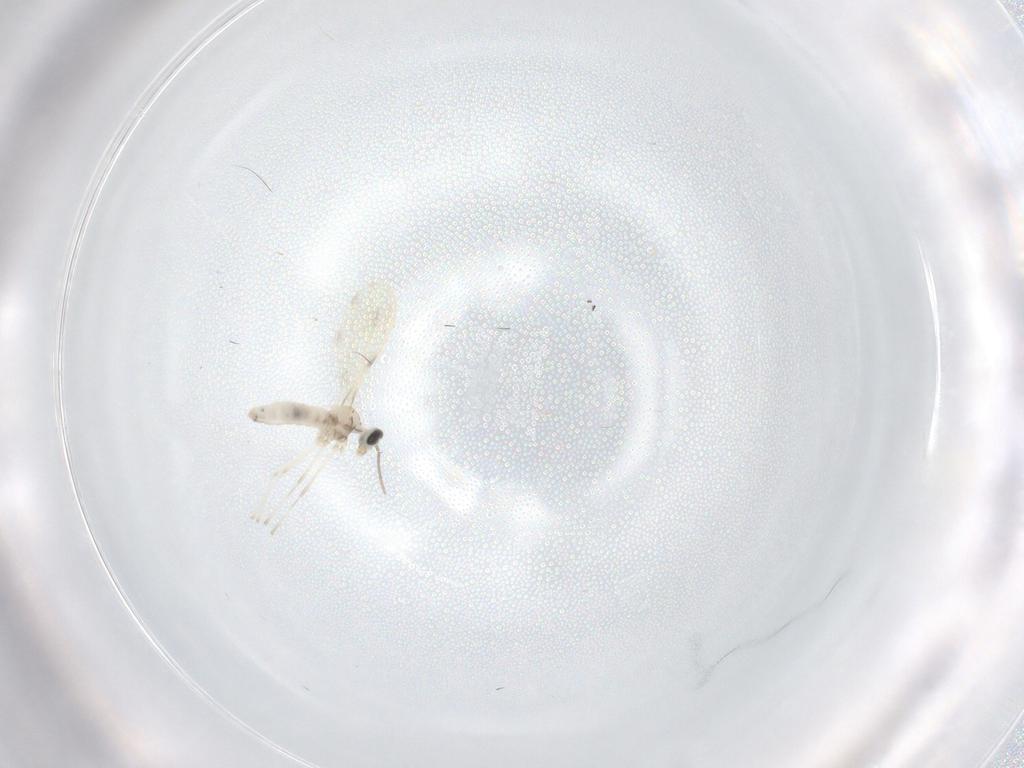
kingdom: Animalia
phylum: Arthropoda
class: Insecta
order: Diptera
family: Cecidomyiidae
